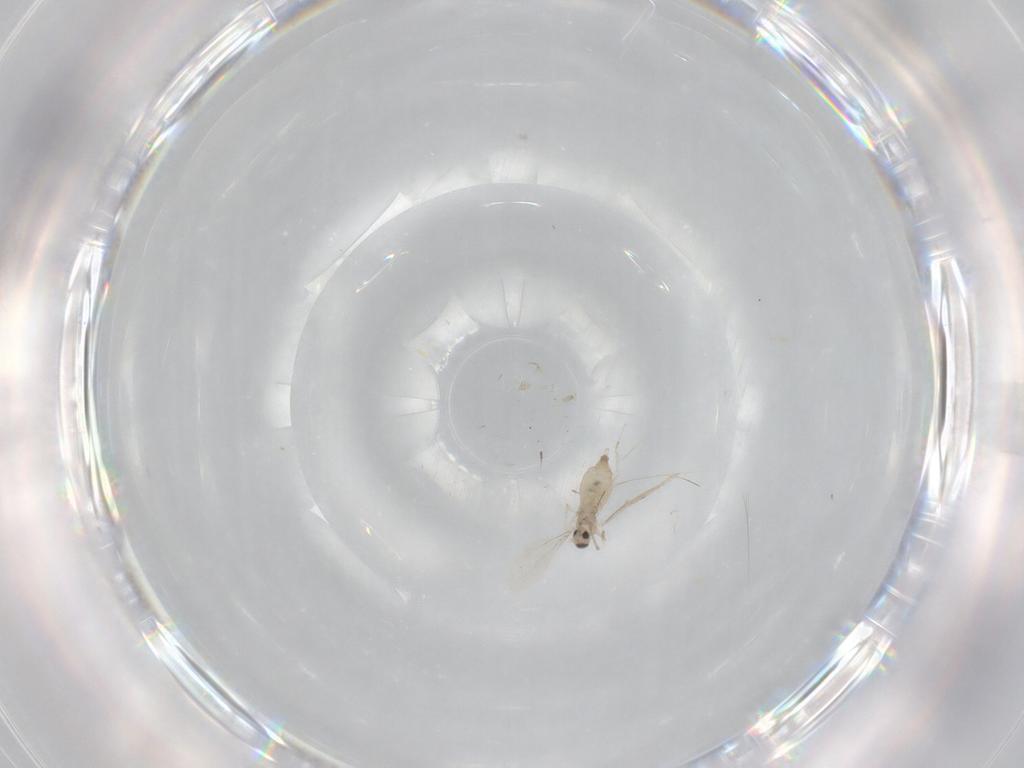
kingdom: Animalia
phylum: Arthropoda
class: Insecta
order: Diptera
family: Cecidomyiidae
